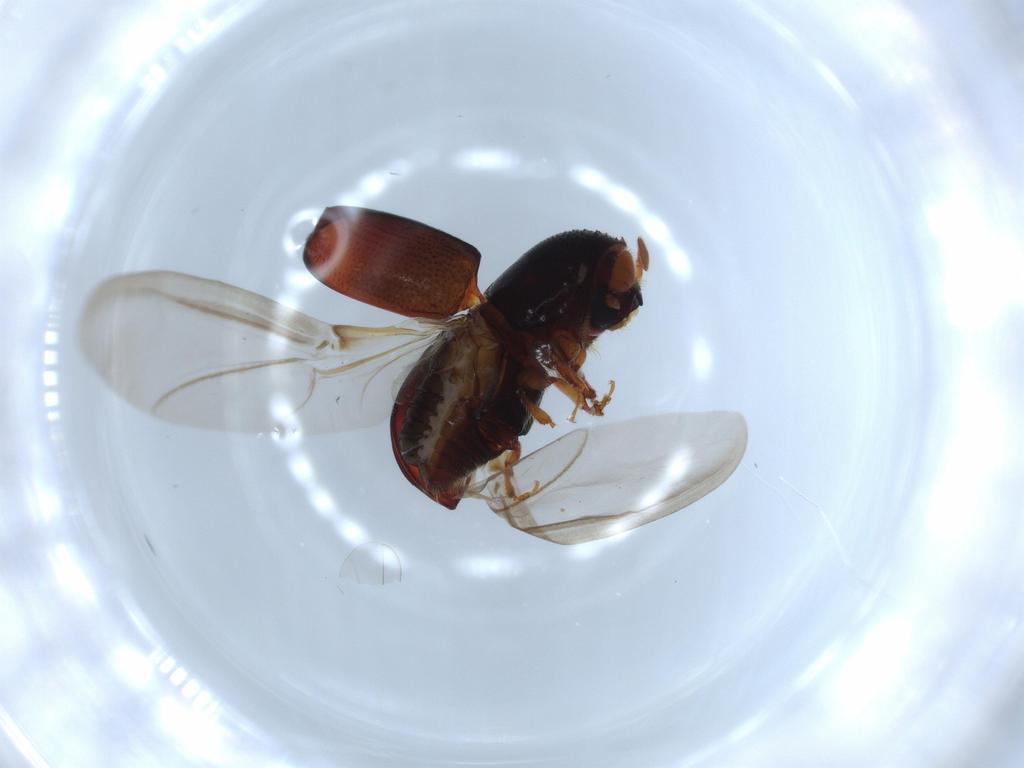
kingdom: Animalia
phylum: Arthropoda
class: Insecta
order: Coleoptera
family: Curculionidae
